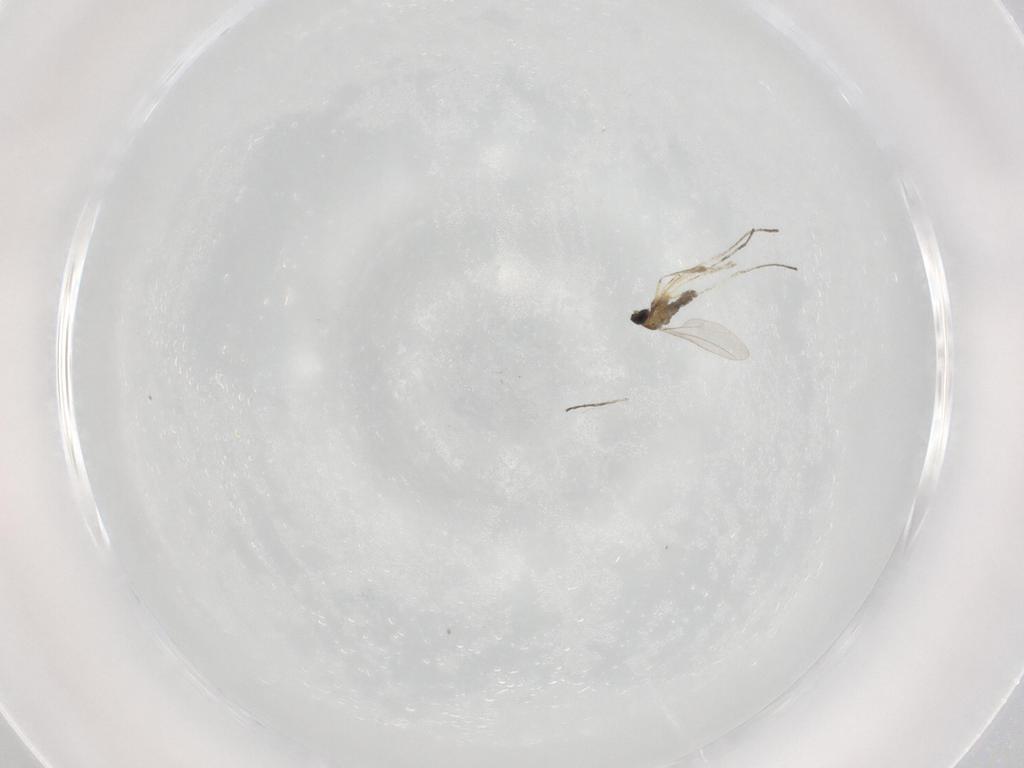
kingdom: Animalia
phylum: Arthropoda
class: Insecta
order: Diptera
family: Cecidomyiidae
